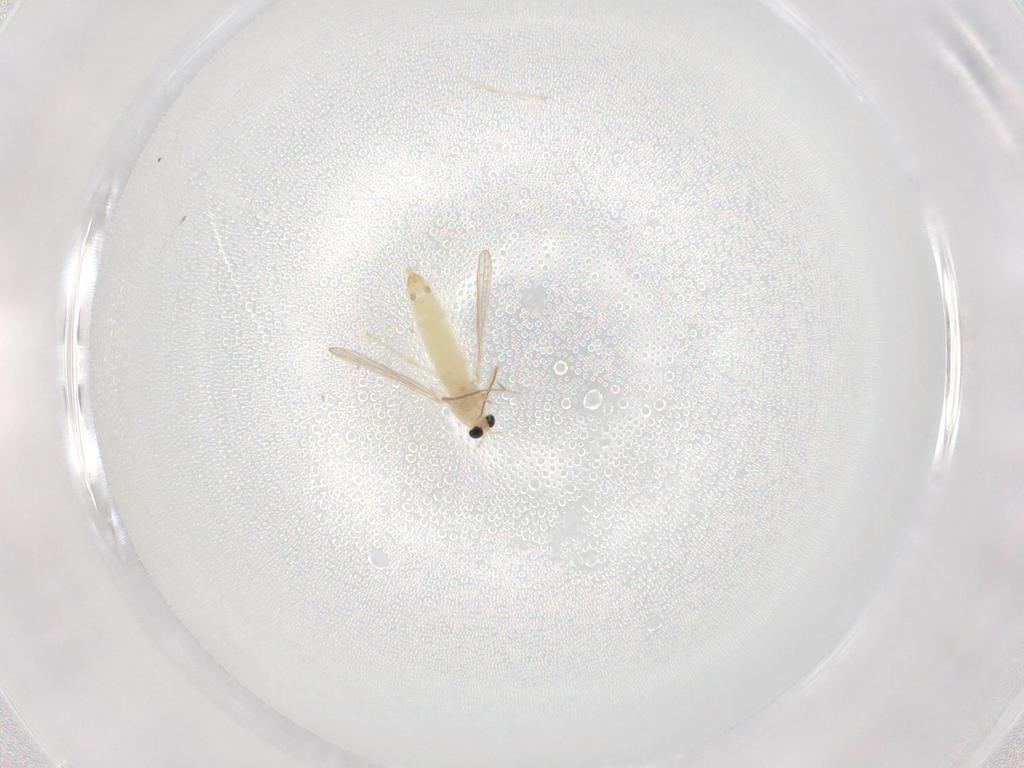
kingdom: Animalia
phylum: Arthropoda
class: Insecta
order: Diptera
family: Chironomidae
